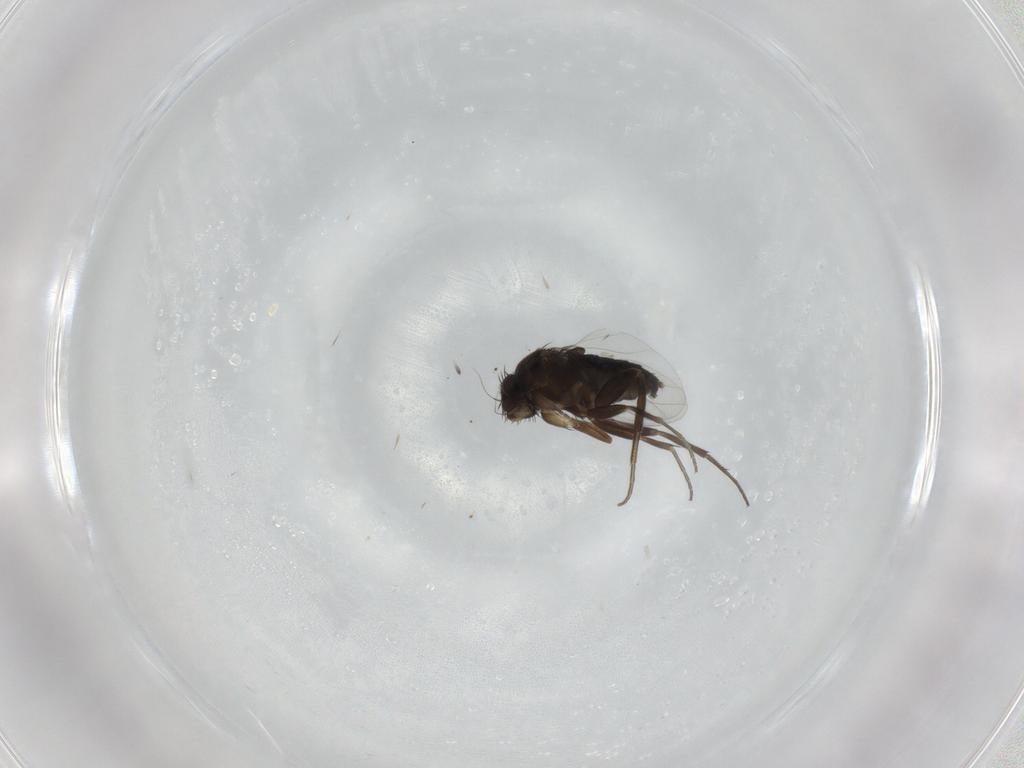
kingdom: Animalia
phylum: Arthropoda
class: Insecta
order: Diptera
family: Phoridae
